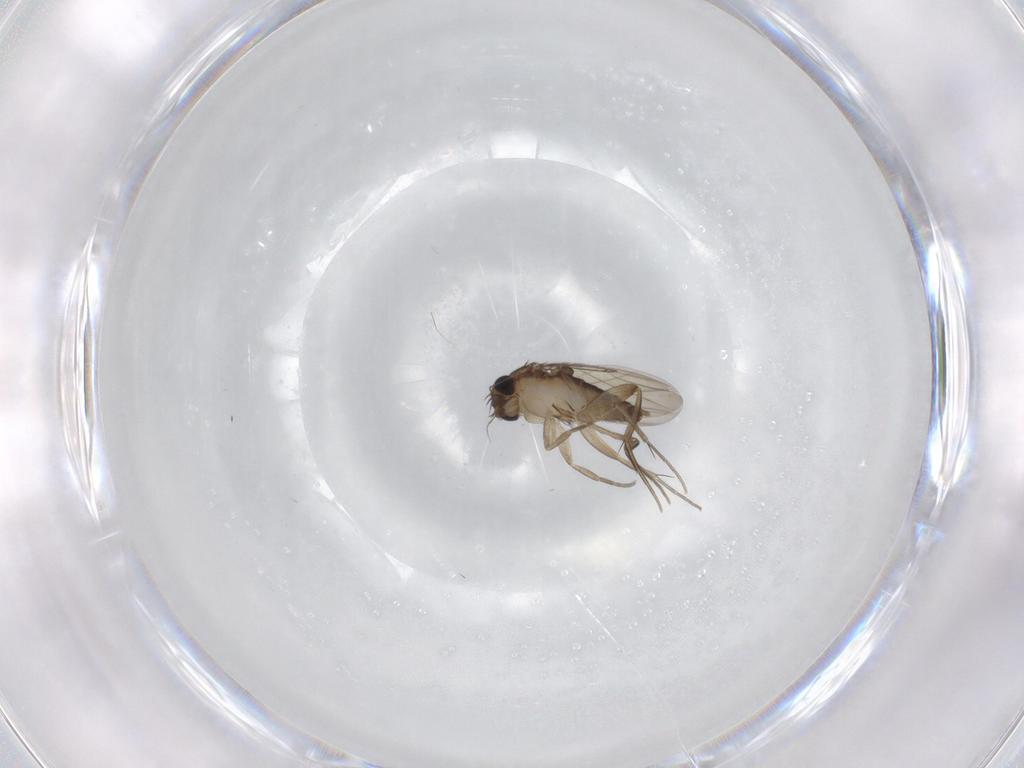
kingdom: Animalia
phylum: Arthropoda
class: Insecta
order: Diptera
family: Phoridae
